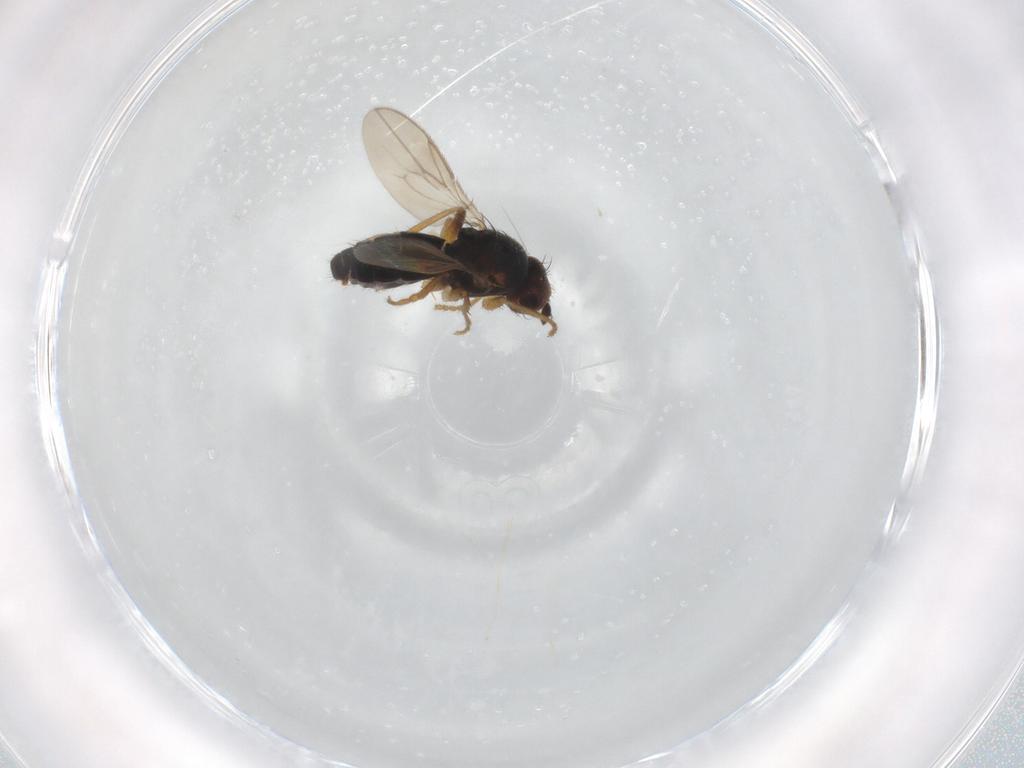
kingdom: Animalia
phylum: Arthropoda
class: Insecta
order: Diptera
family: Sphaeroceridae
